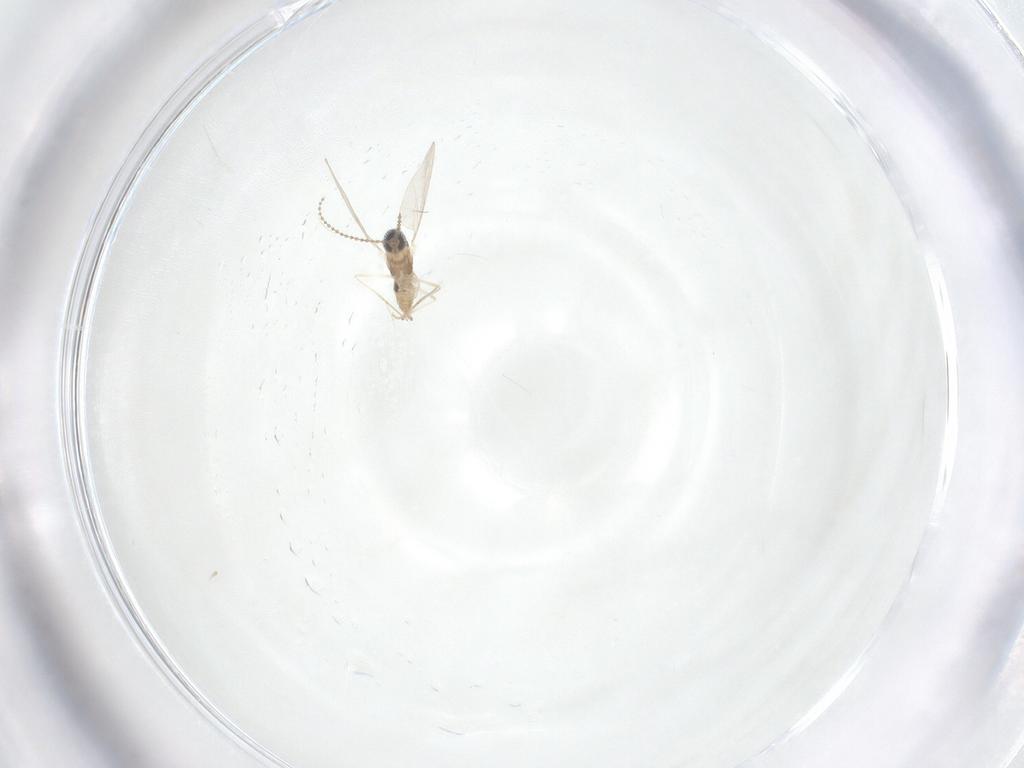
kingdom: Animalia
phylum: Arthropoda
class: Insecta
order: Diptera
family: Cecidomyiidae
